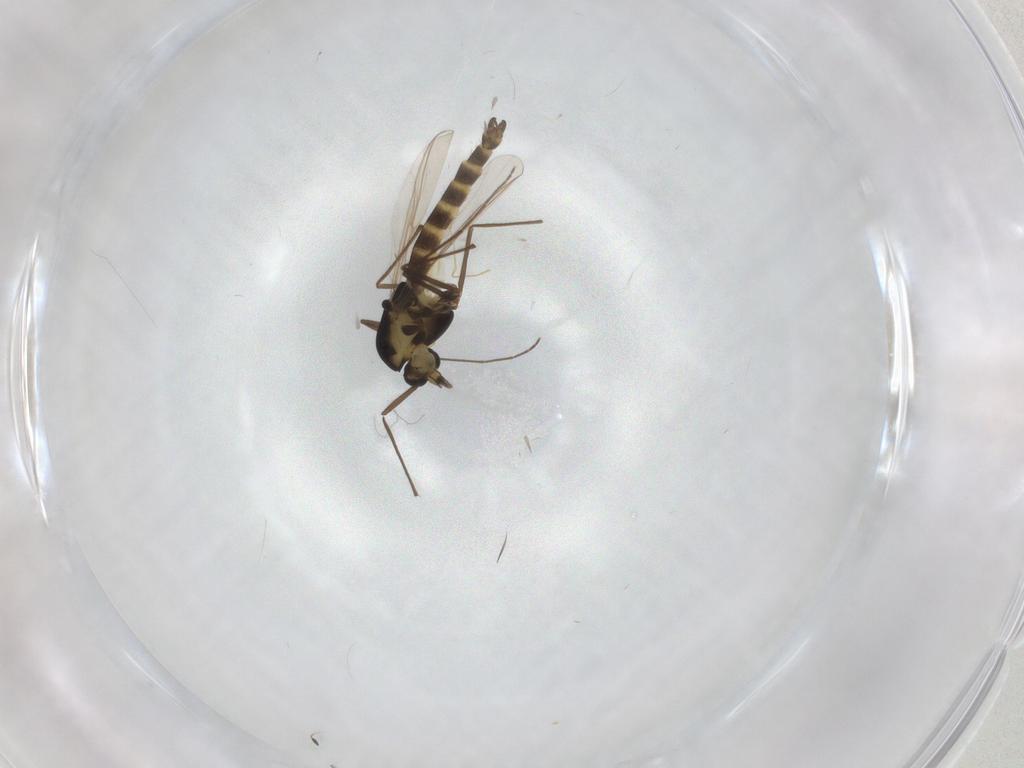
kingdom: Animalia
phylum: Arthropoda
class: Insecta
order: Diptera
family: Chironomidae
